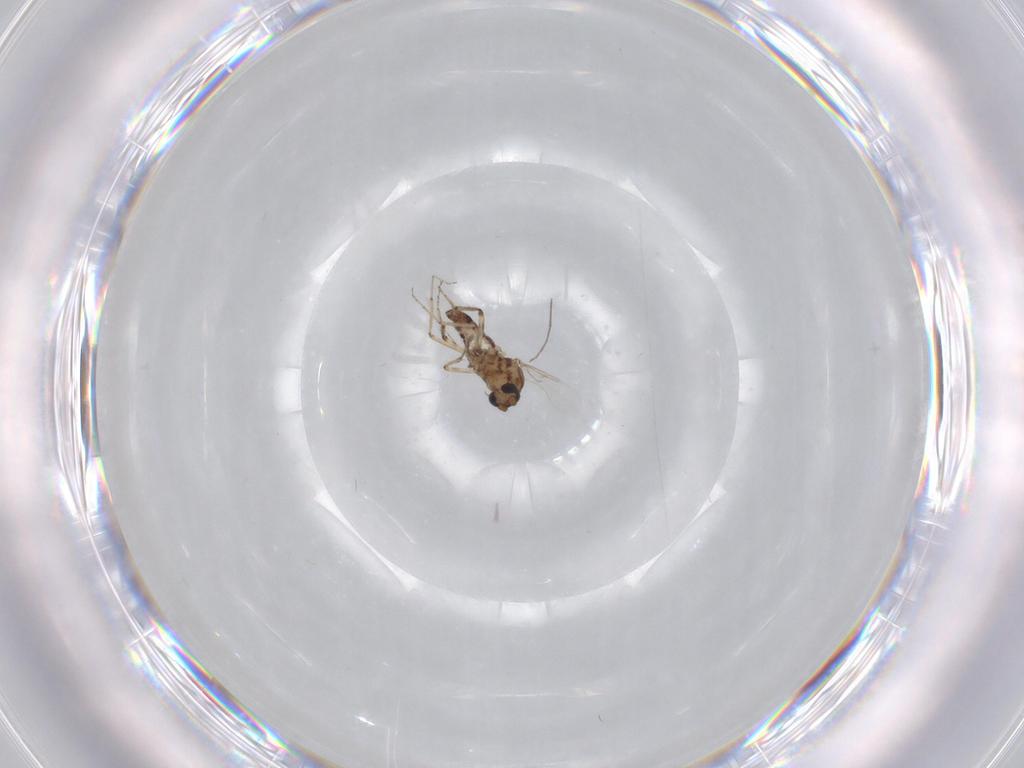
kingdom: Animalia
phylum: Arthropoda
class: Insecta
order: Diptera
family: Ceratopogonidae
